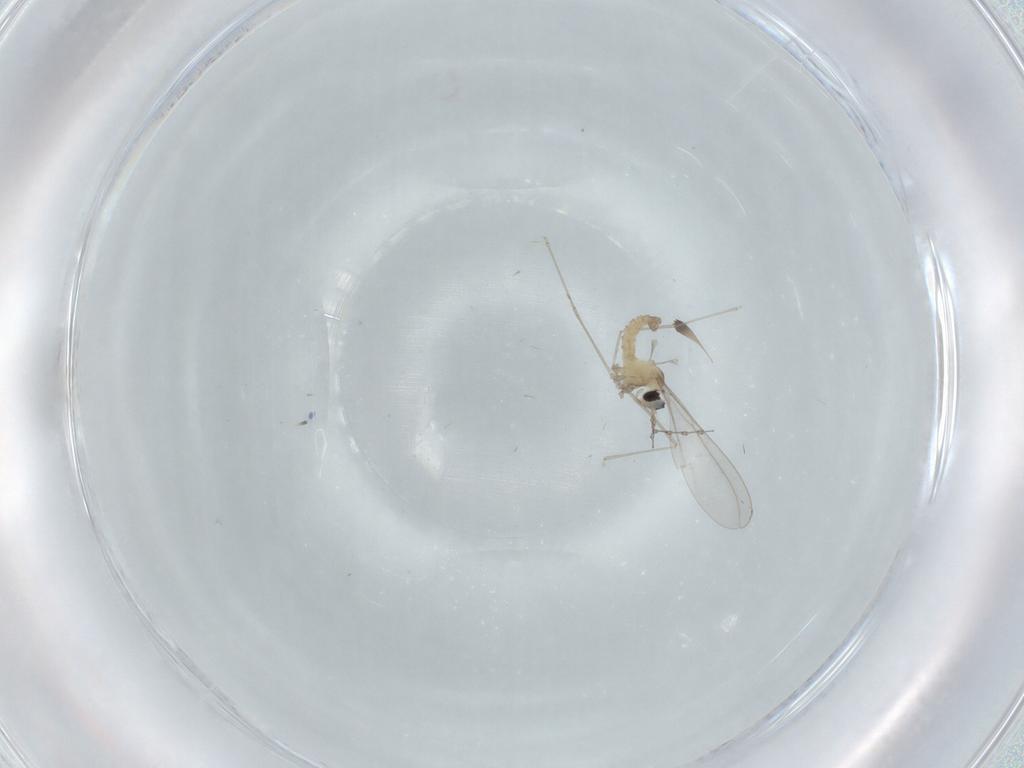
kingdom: Animalia
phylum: Arthropoda
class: Insecta
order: Diptera
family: Cecidomyiidae
